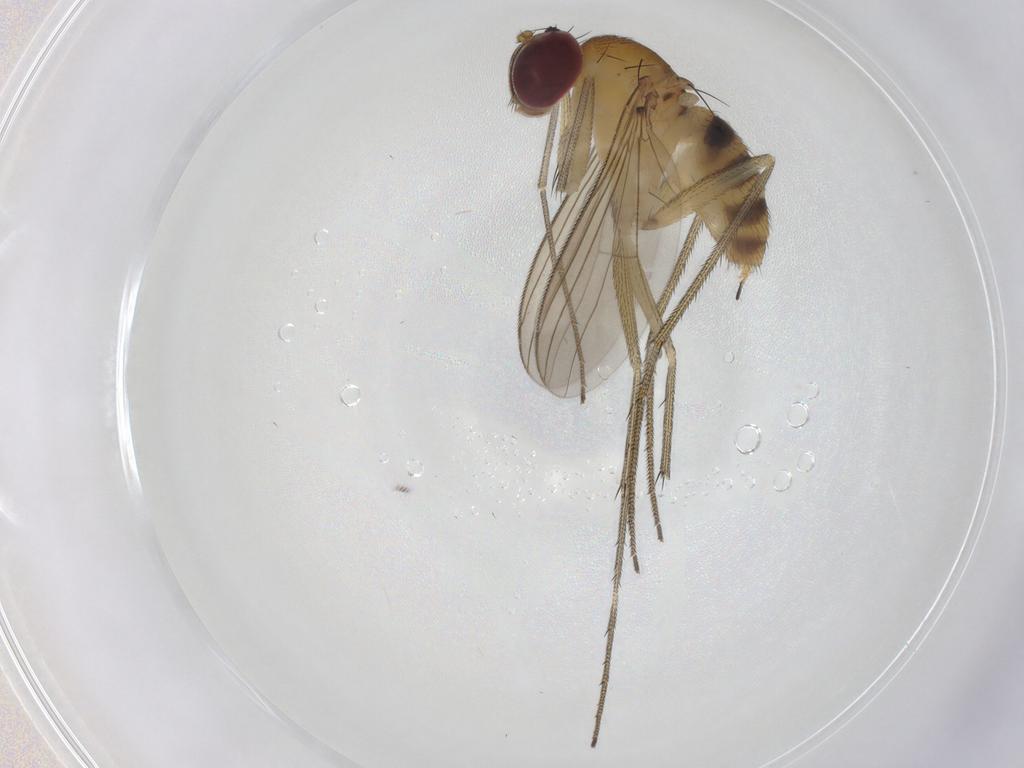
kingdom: Animalia
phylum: Arthropoda
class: Insecta
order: Diptera
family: Dolichopodidae
